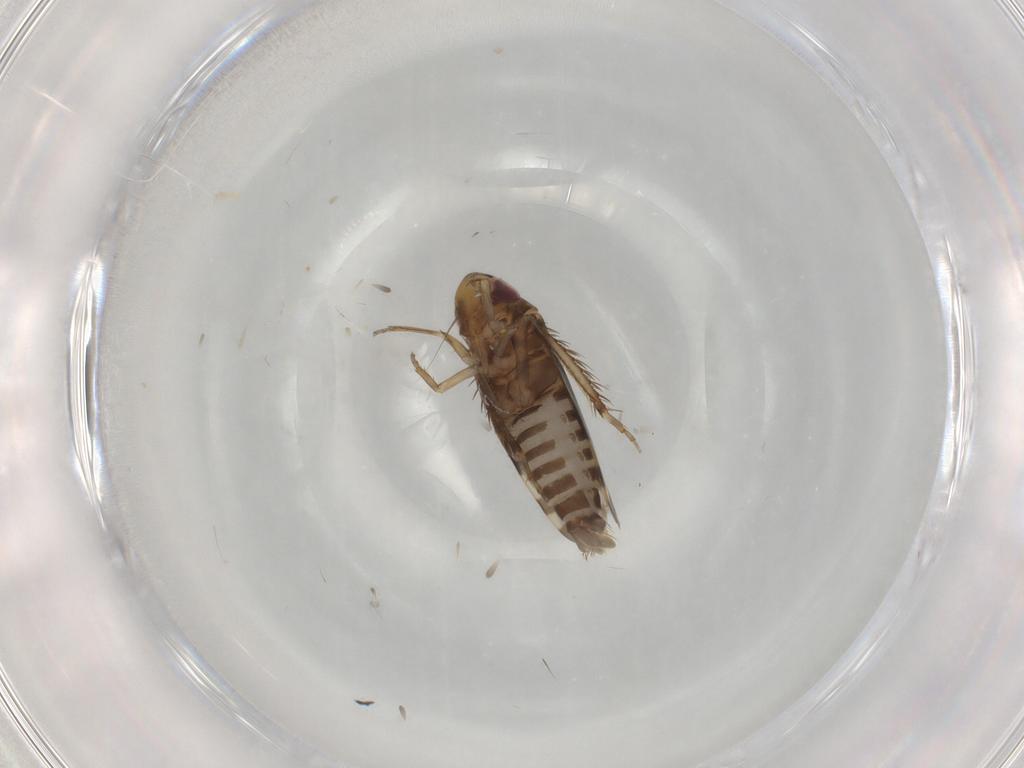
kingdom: Animalia
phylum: Arthropoda
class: Insecta
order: Hemiptera
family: Cicadellidae
